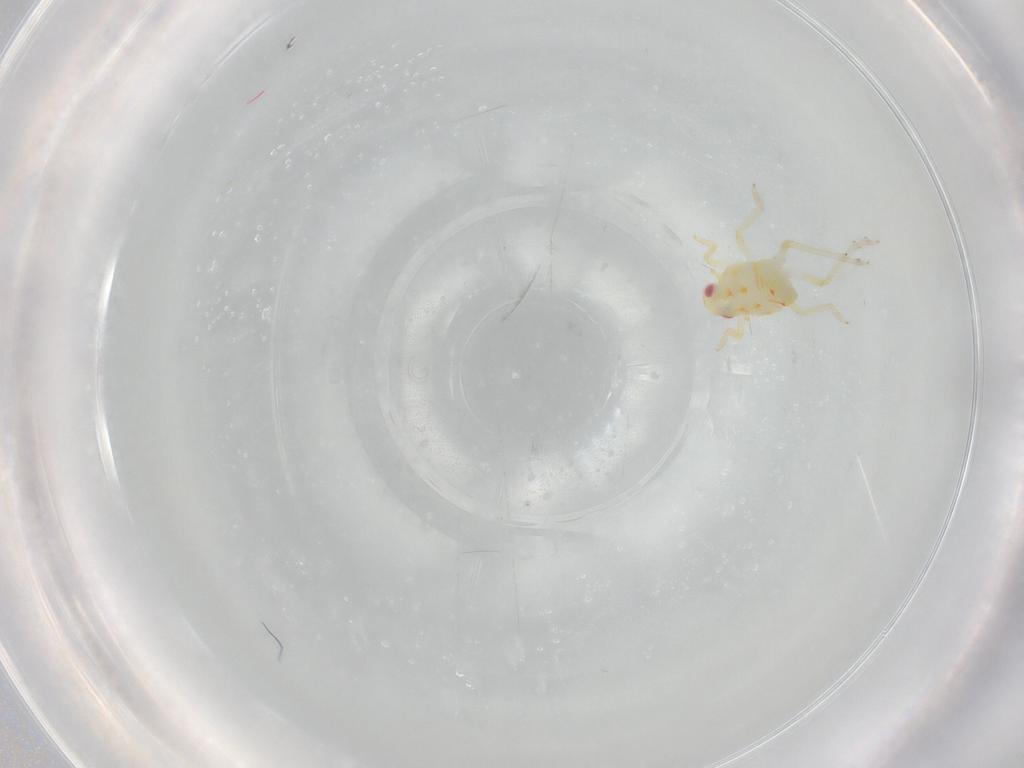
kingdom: Animalia
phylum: Arthropoda
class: Insecta
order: Hemiptera
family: Tropiduchidae
